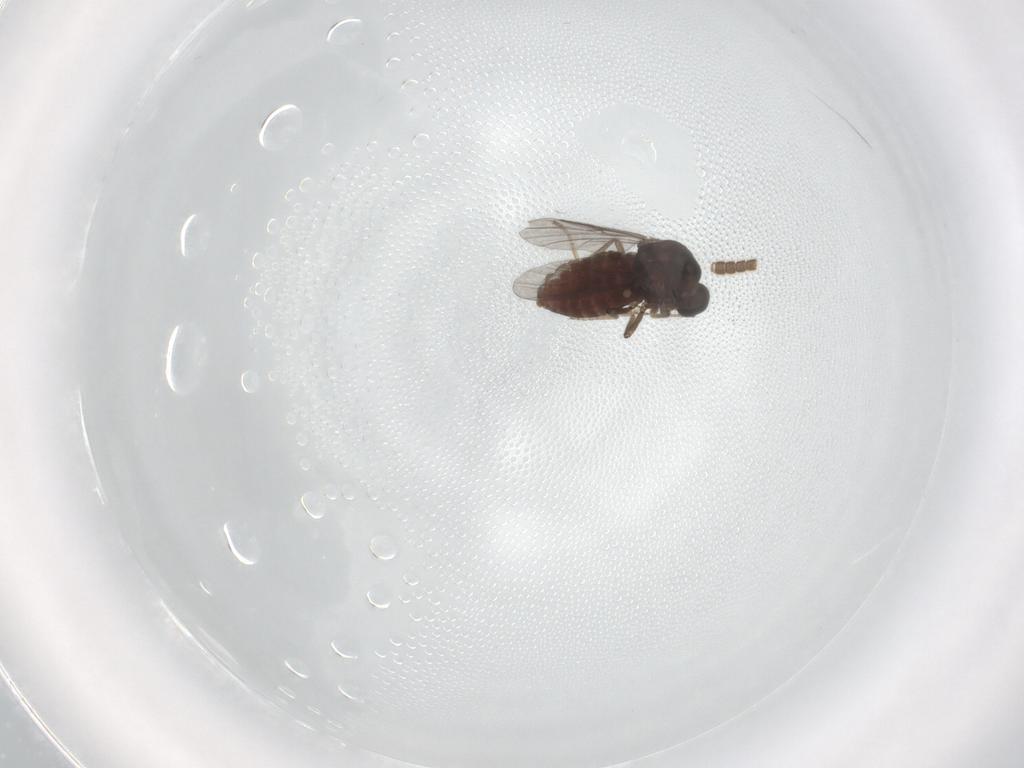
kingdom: Animalia
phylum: Arthropoda
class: Insecta
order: Diptera
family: Ceratopogonidae
